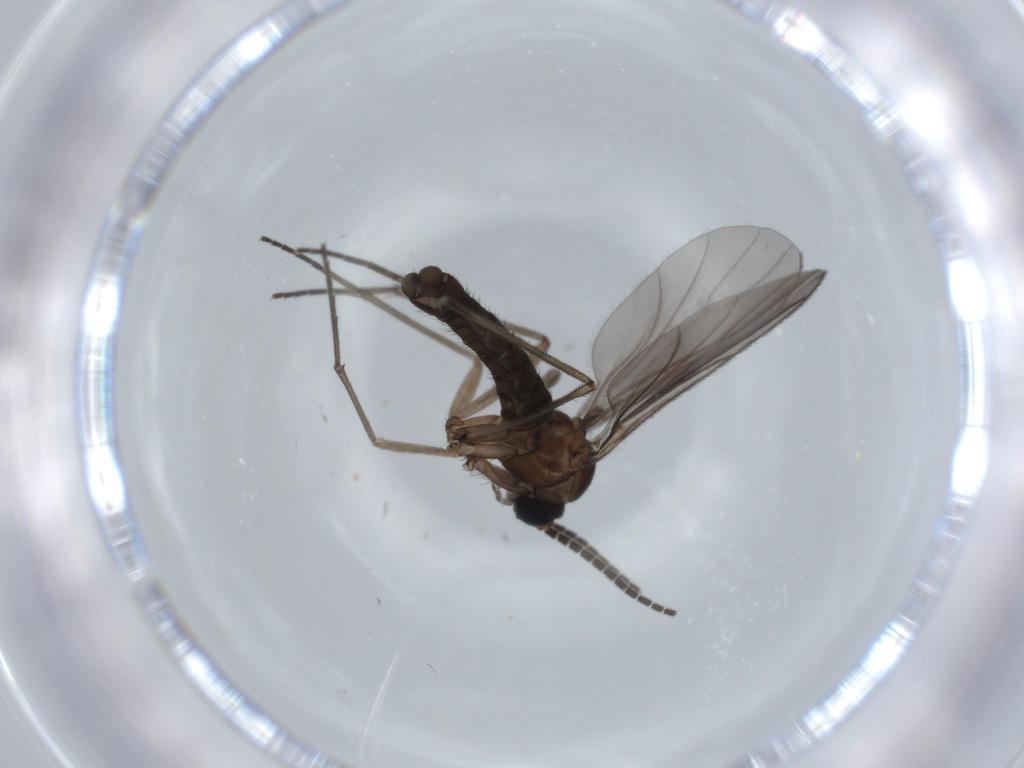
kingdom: Animalia
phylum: Arthropoda
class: Insecta
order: Diptera
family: Sciaridae
